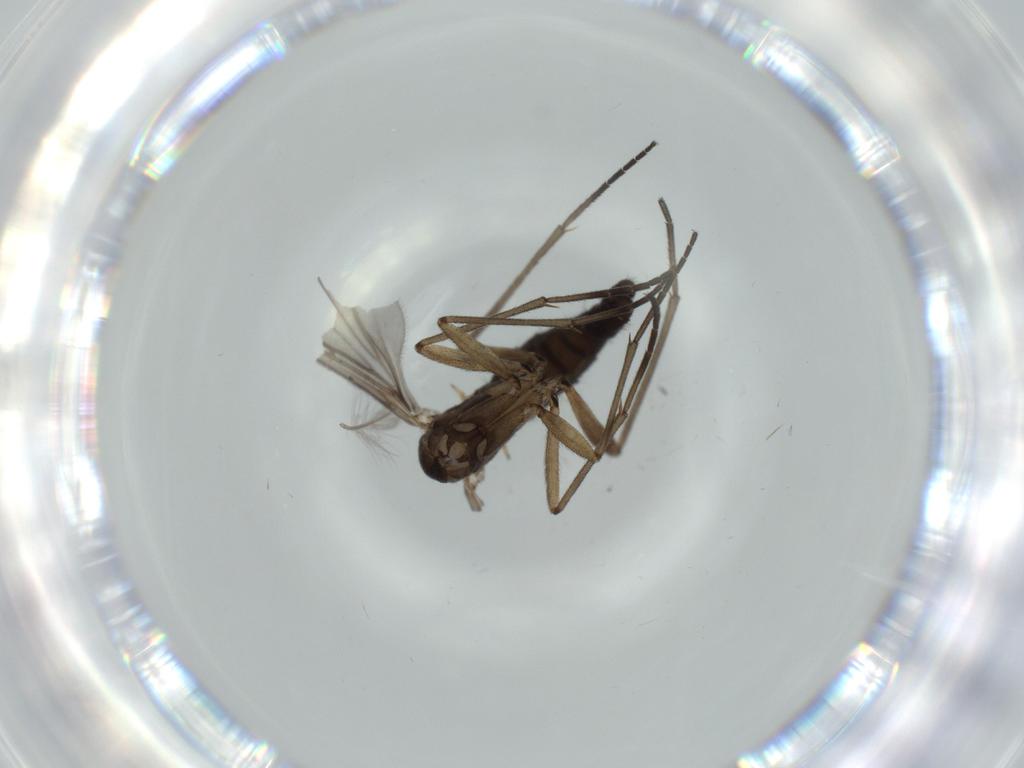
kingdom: Animalia
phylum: Arthropoda
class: Insecta
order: Diptera
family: Sciaridae
